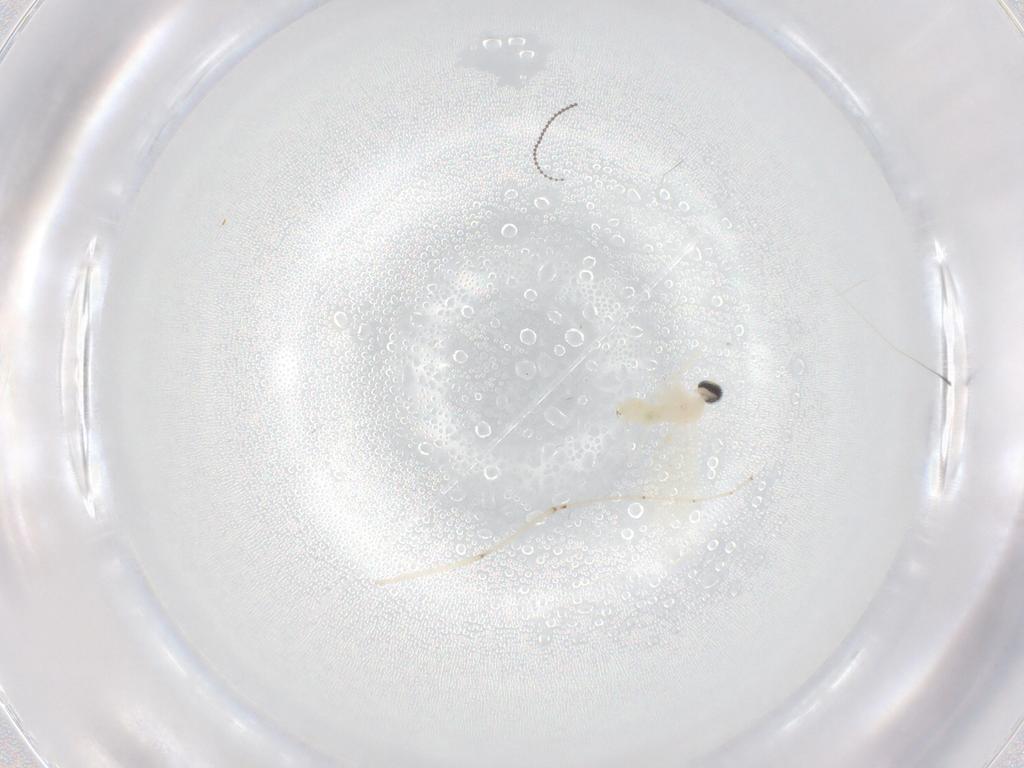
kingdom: Animalia
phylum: Arthropoda
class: Insecta
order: Diptera
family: Cecidomyiidae
